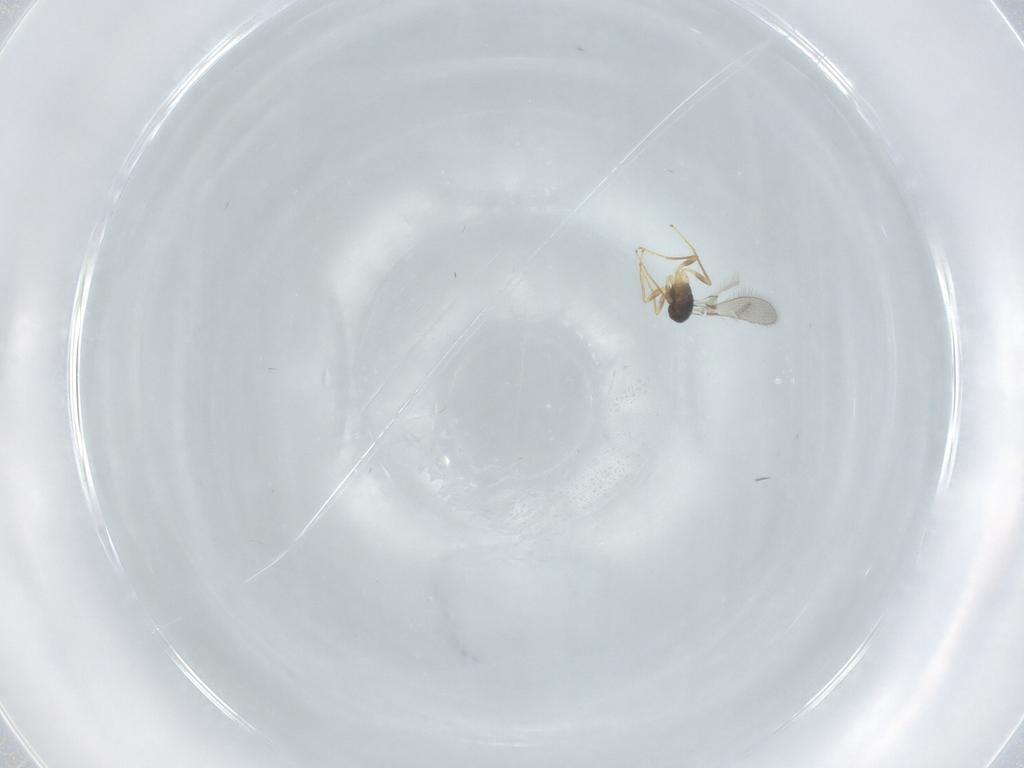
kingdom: Animalia
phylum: Arthropoda
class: Insecta
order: Hymenoptera
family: Mymaridae
